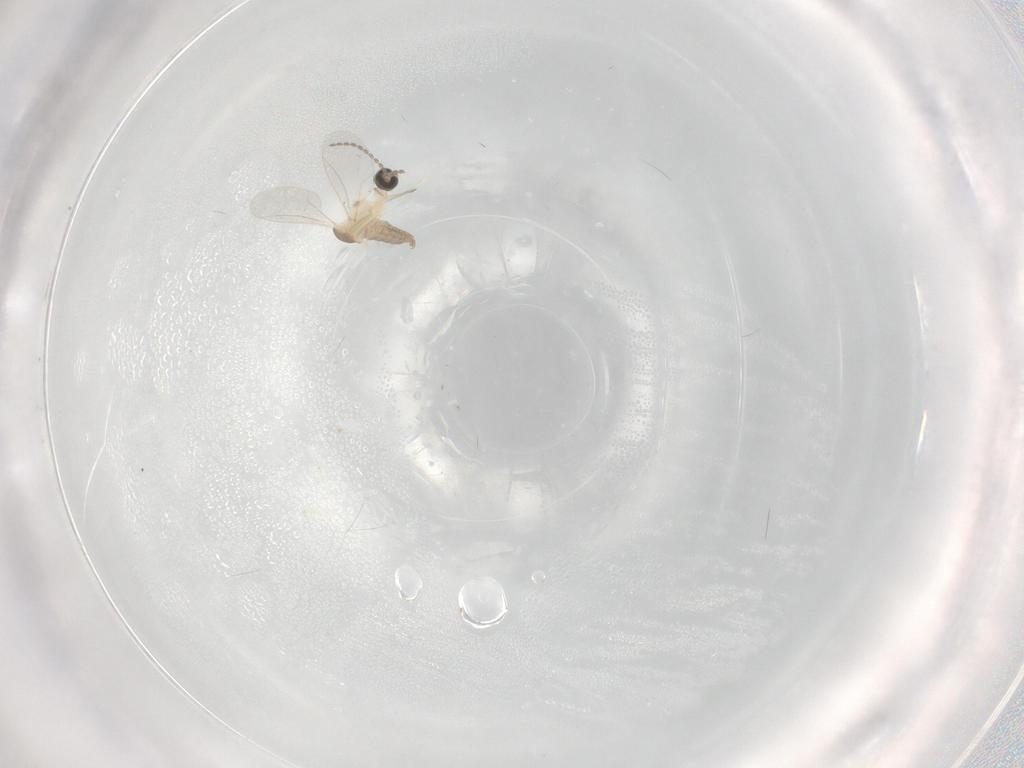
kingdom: Animalia
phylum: Arthropoda
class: Insecta
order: Diptera
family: Cecidomyiidae
